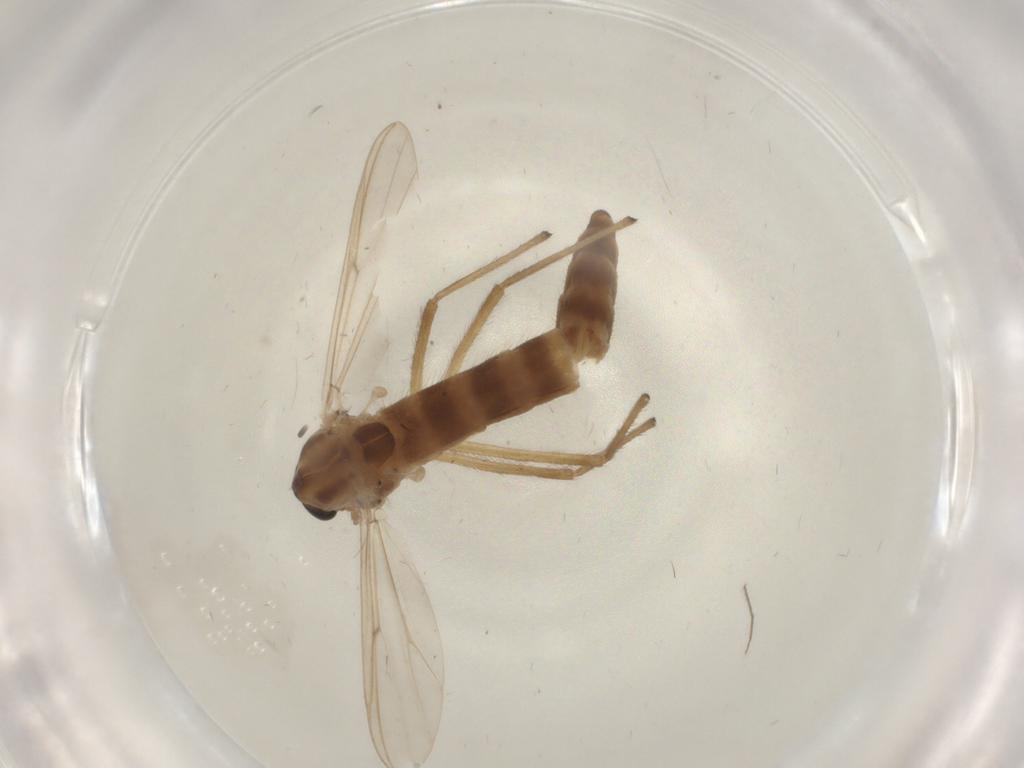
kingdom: Animalia
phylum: Arthropoda
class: Insecta
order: Diptera
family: Chironomidae
